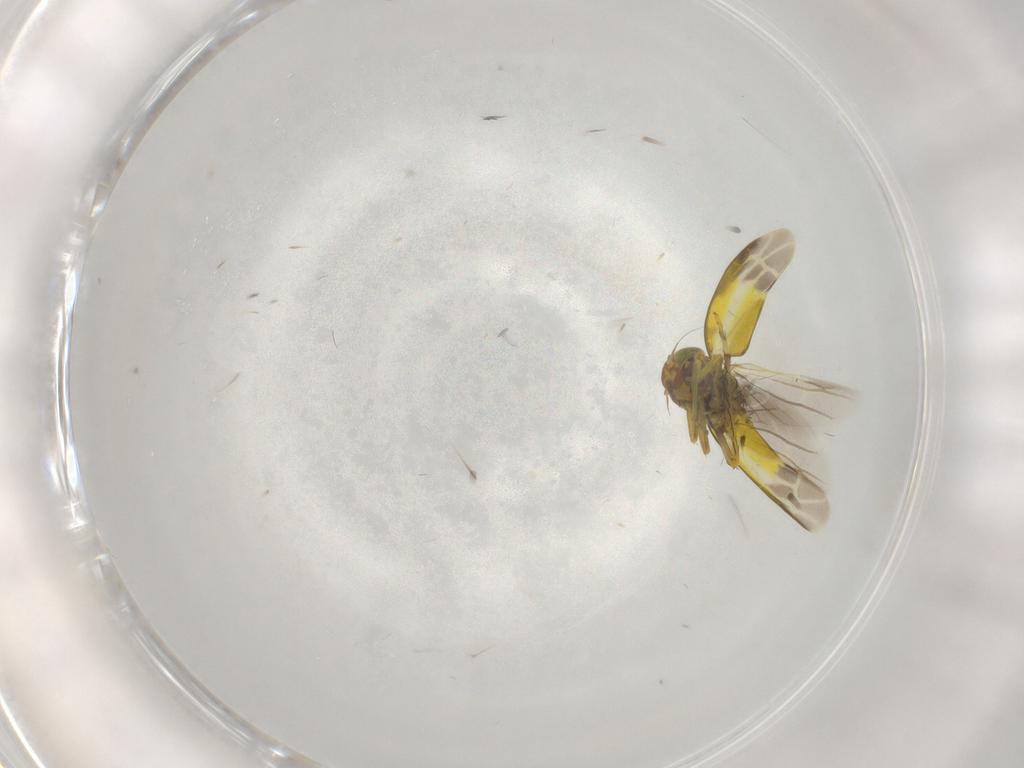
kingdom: Animalia
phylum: Arthropoda
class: Insecta
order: Hemiptera
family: Cicadellidae
